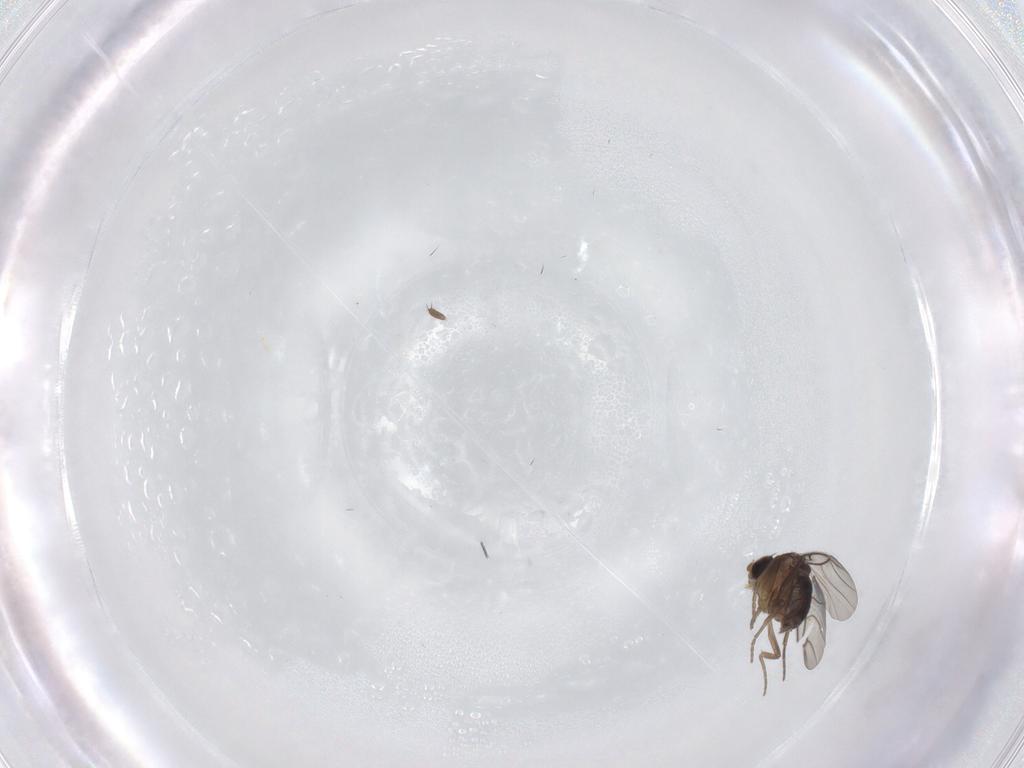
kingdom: Animalia
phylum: Arthropoda
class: Insecta
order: Diptera
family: Phoridae
